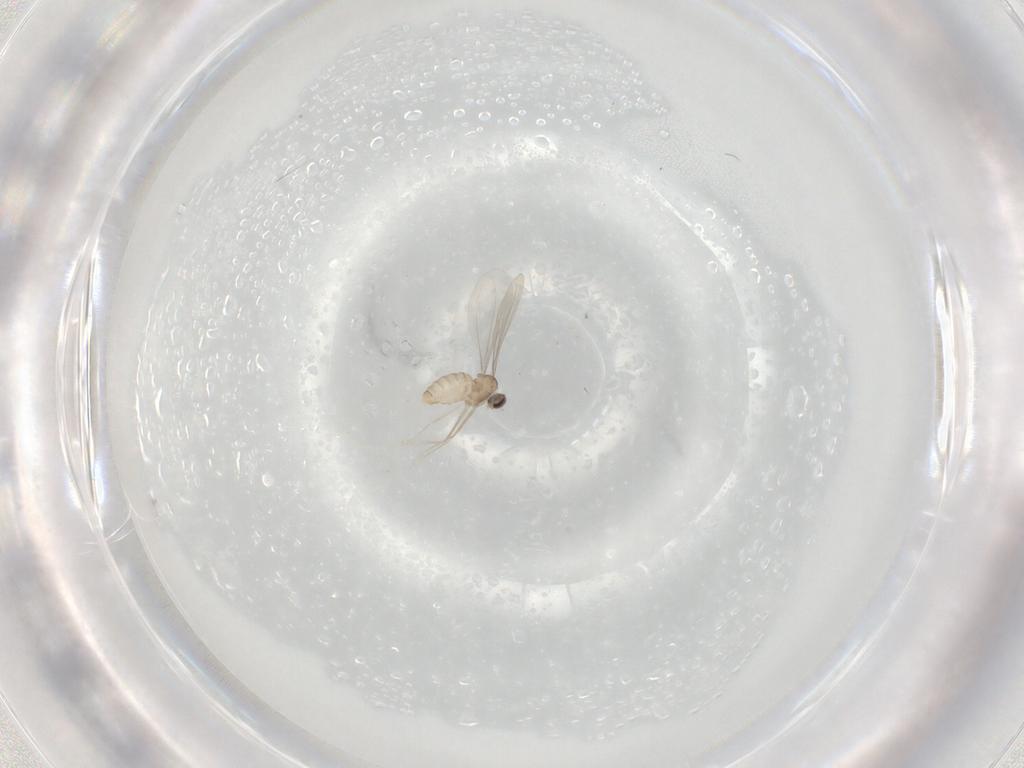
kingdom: Animalia
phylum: Arthropoda
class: Insecta
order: Diptera
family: Cecidomyiidae
